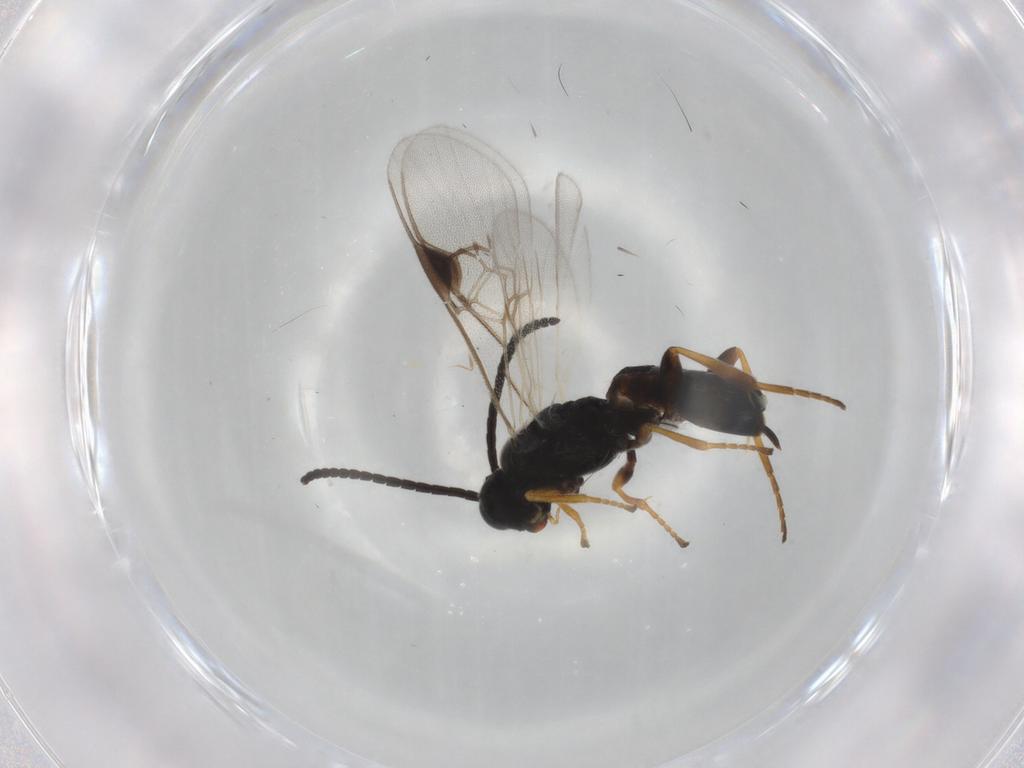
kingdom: Animalia
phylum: Arthropoda
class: Insecta
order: Hymenoptera
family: Braconidae
